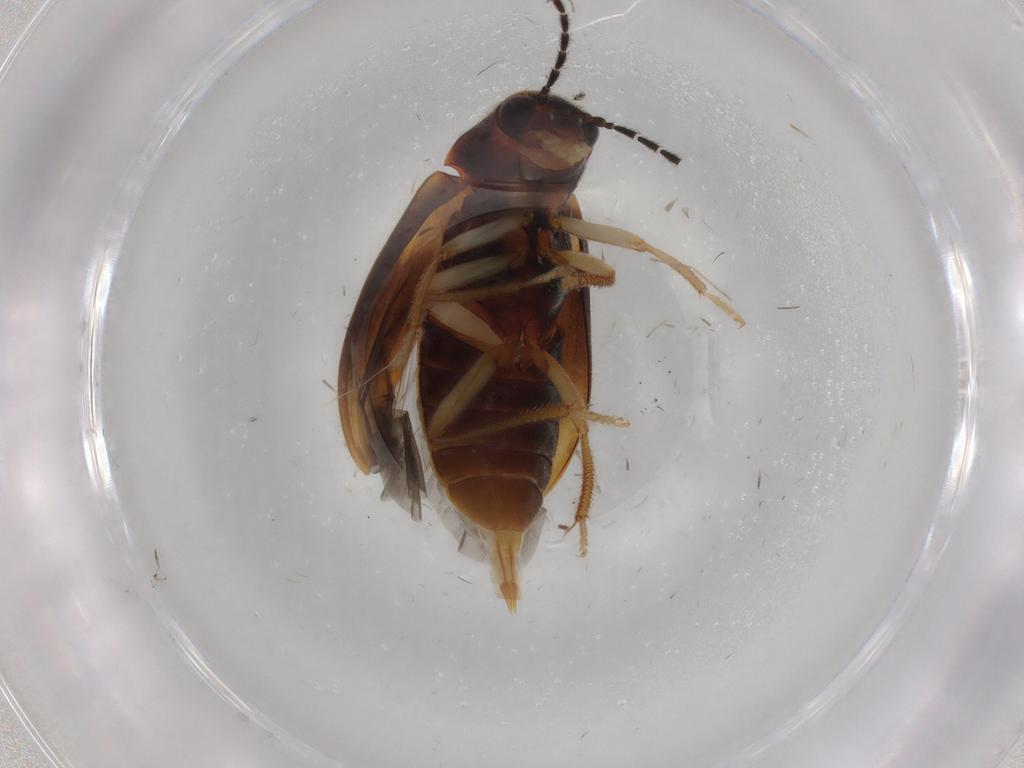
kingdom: Animalia
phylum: Arthropoda
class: Insecta
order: Coleoptera
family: Ptilodactylidae
